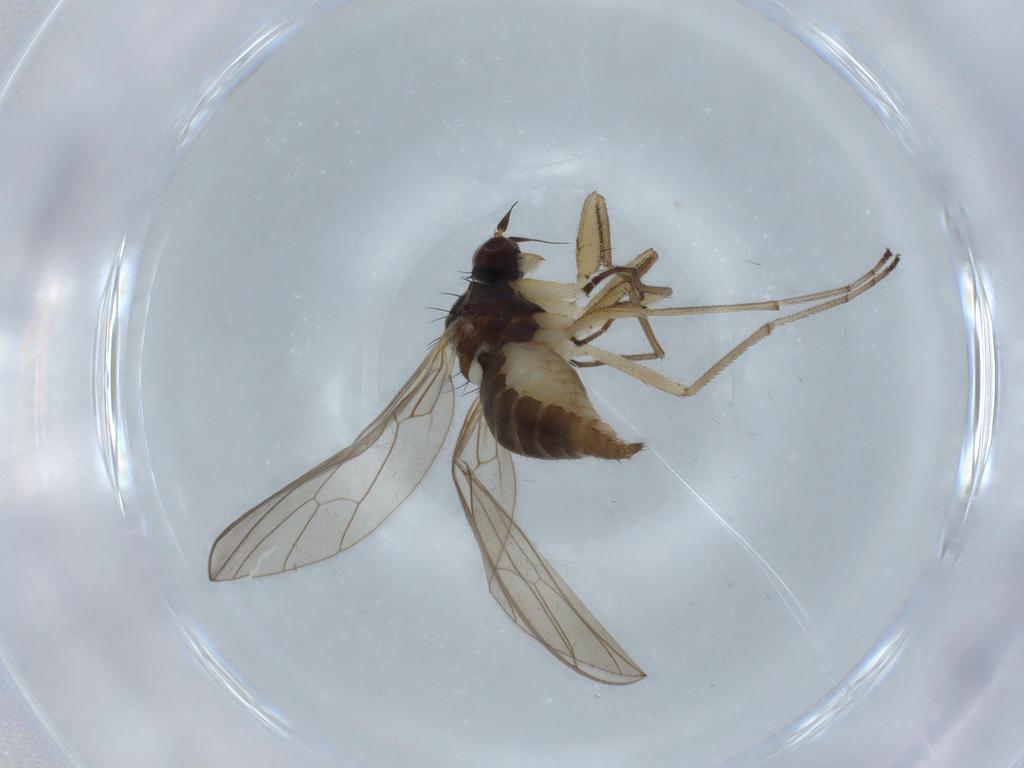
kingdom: Animalia
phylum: Arthropoda
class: Insecta
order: Diptera
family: Empididae
